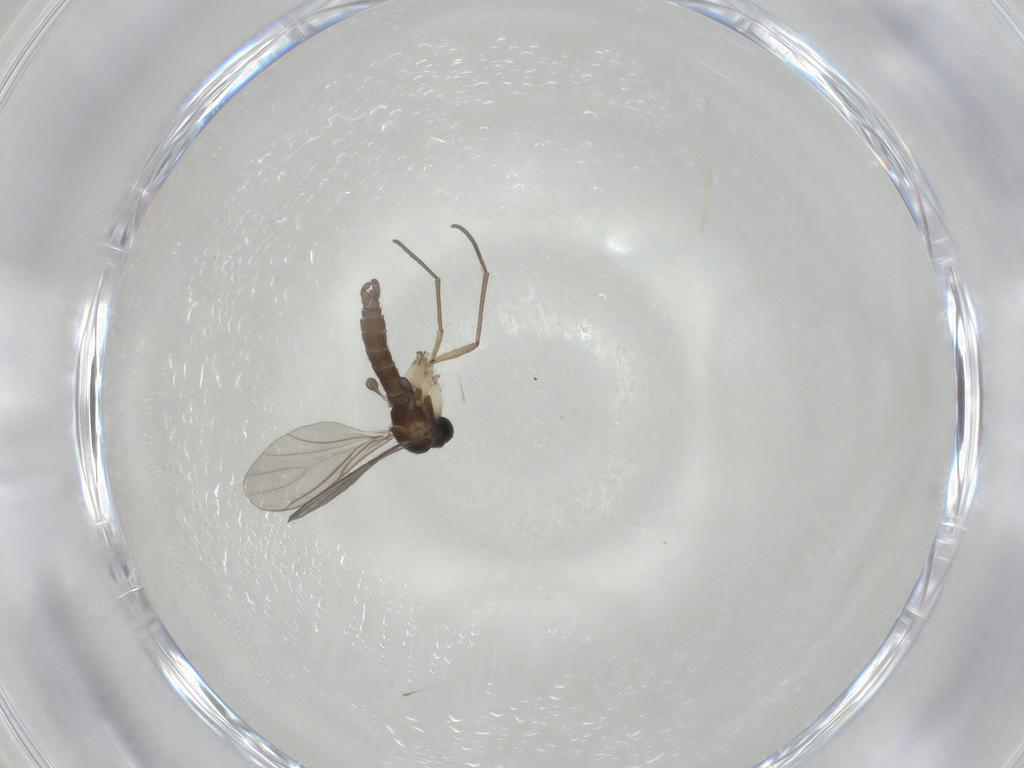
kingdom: Animalia
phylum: Arthropoda
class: Insecta
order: Diptera
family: Sciaridae
